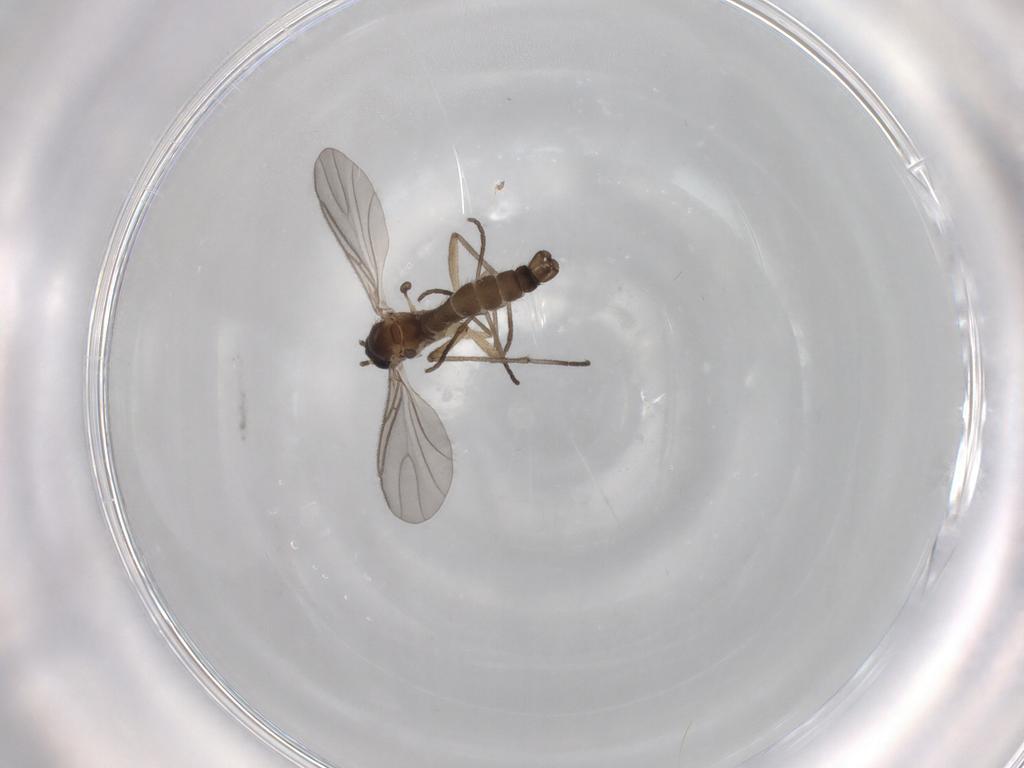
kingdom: Animalia
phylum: Arthropoda
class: Insecta
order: Diptera
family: Sciaridae
